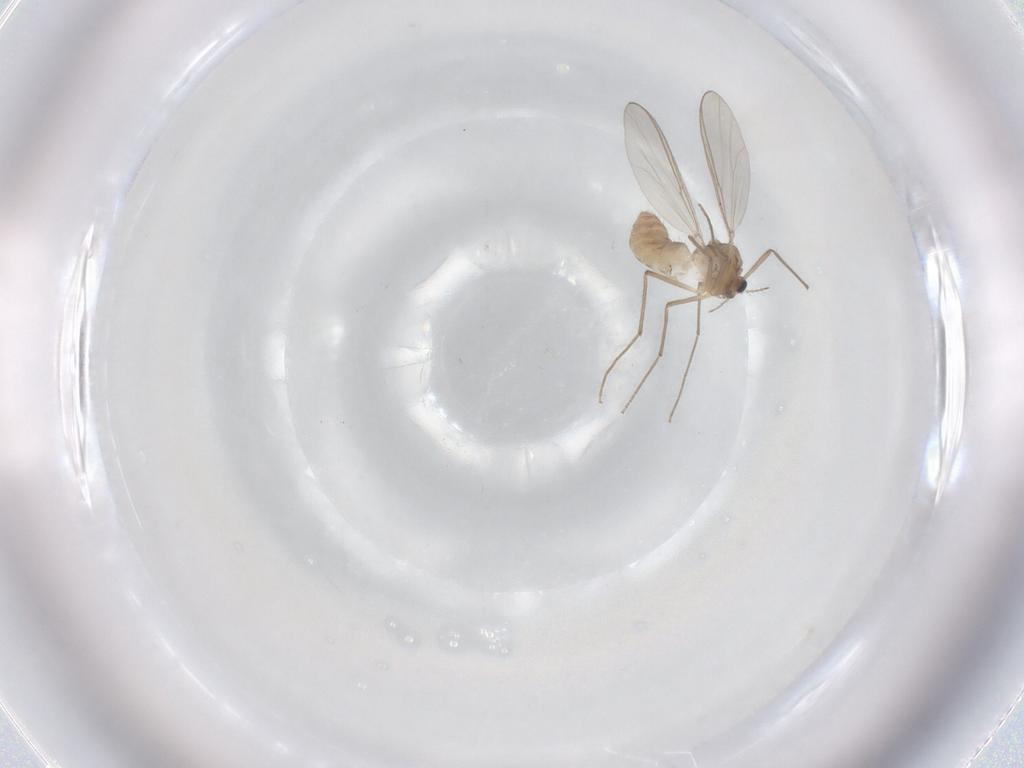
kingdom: Animalia
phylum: Arthropoda
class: Insecta
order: Diptera
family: Chironomidae
